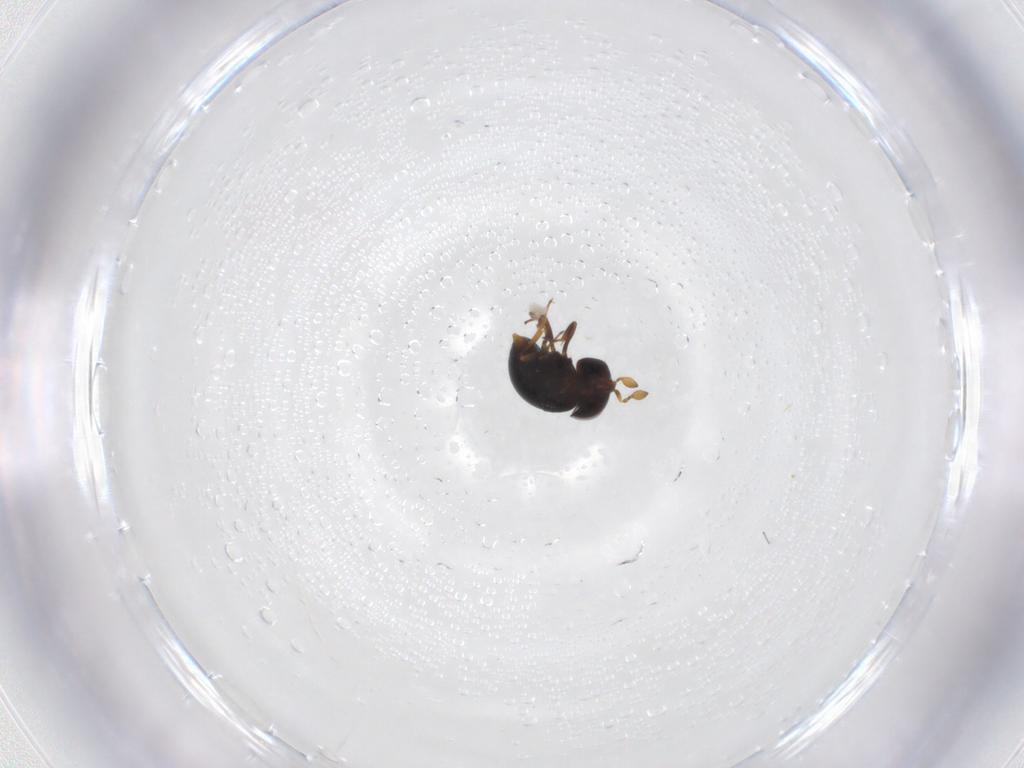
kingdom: Animalia
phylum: Arthropoda
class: Insecta
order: Hymenoptera
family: Scelionidae
